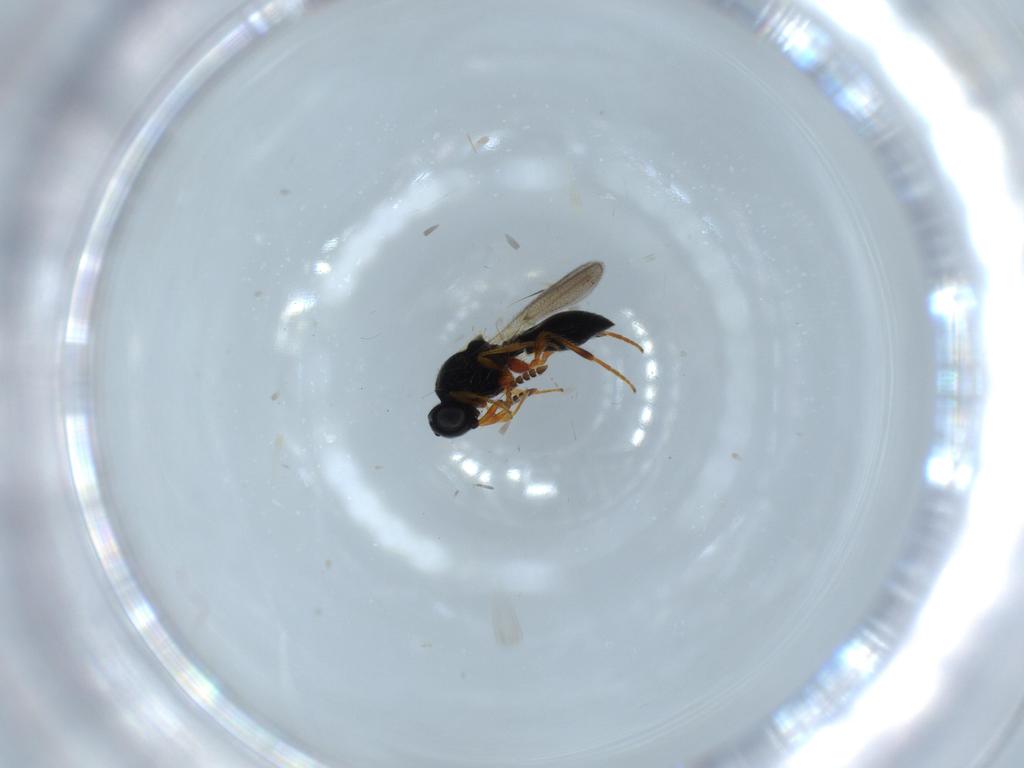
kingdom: Animalia
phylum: Arthropoda
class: Insecta
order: Hymenoptera
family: Platygastridae
